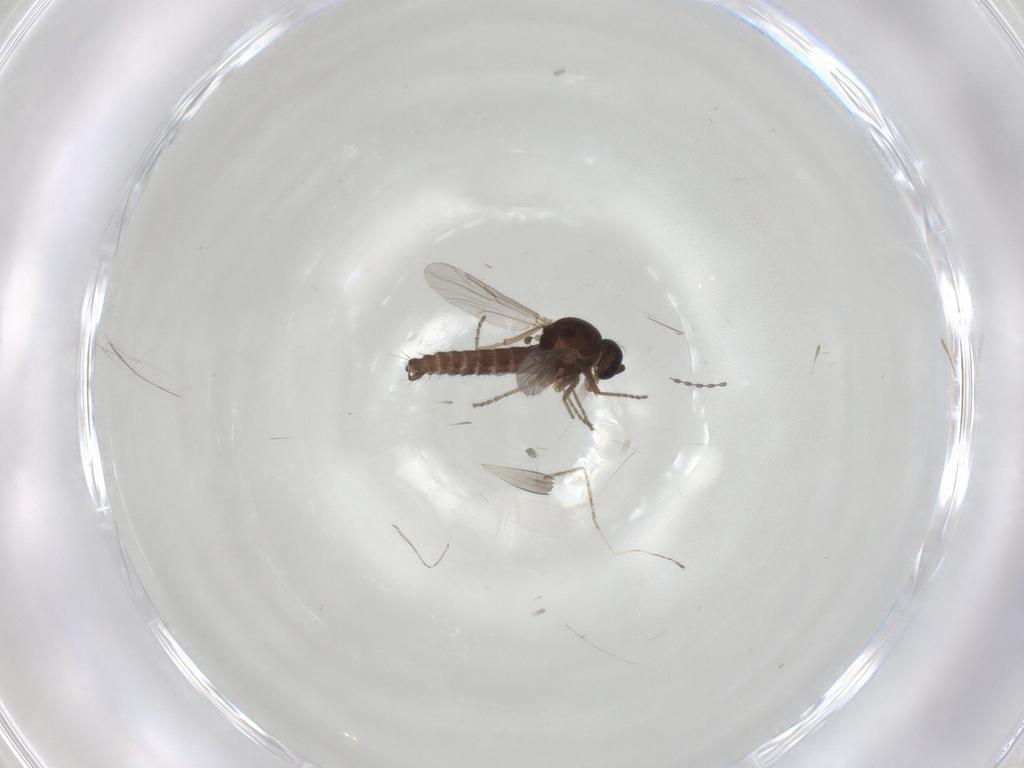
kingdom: Animalia
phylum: Arthropoda
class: Insecta
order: Diptera
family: Ceratopogonidae
